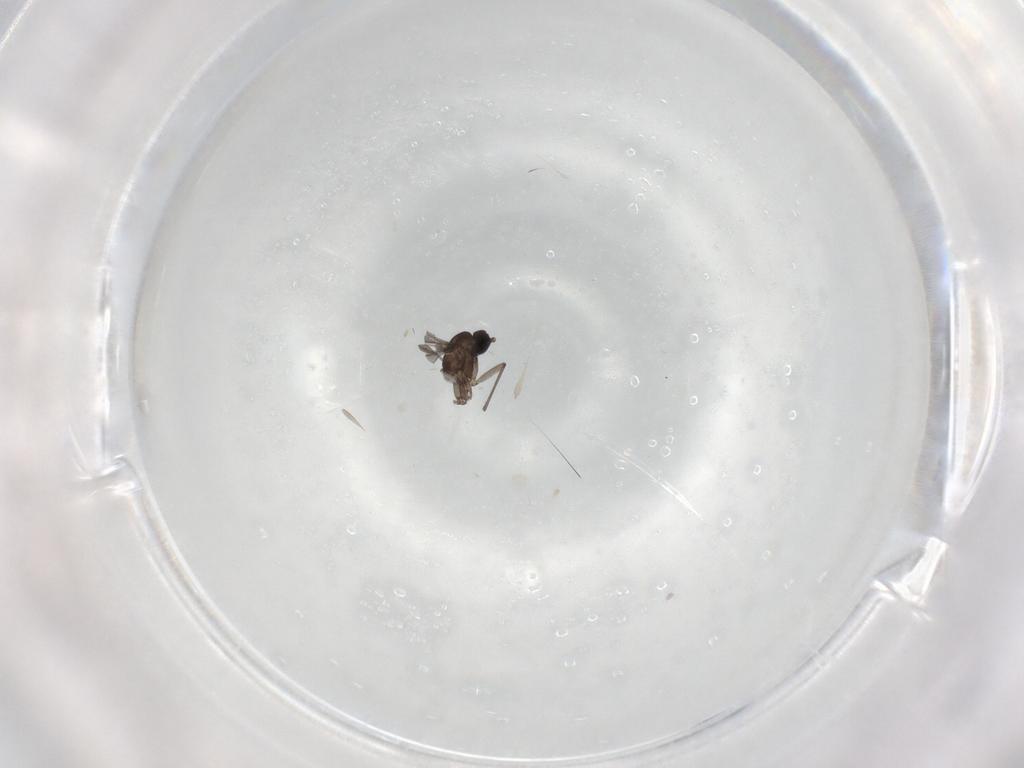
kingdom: Animalia
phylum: Arthropoda
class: Insecta
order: Diptera
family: Sciaridae
